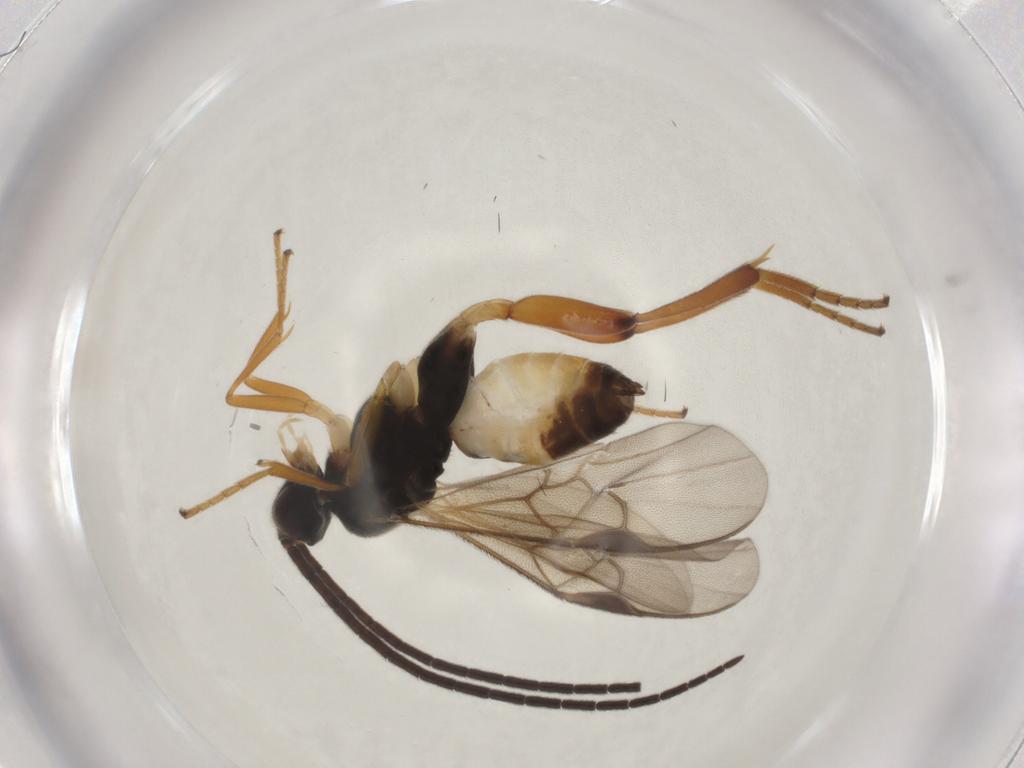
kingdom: Animalia
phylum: Arthropoda
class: Insecta
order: Hymenoptera
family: Braconidae
